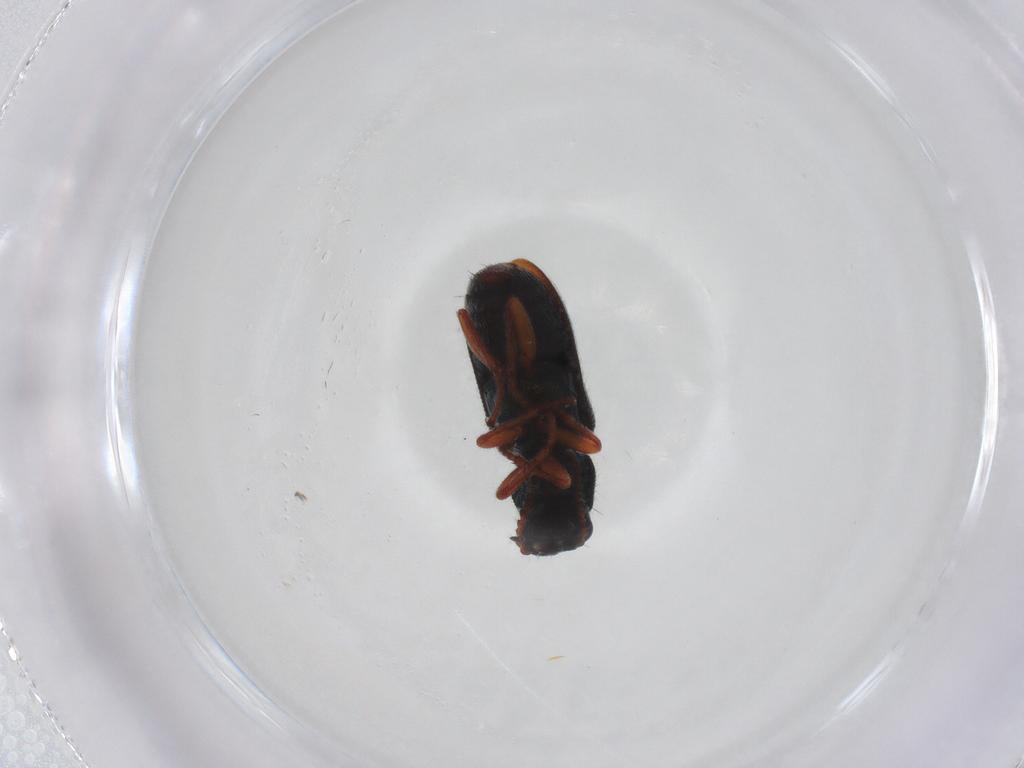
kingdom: Animalia
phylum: Arthropoda
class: Insecta
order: Coleoptera
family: Melyridae
